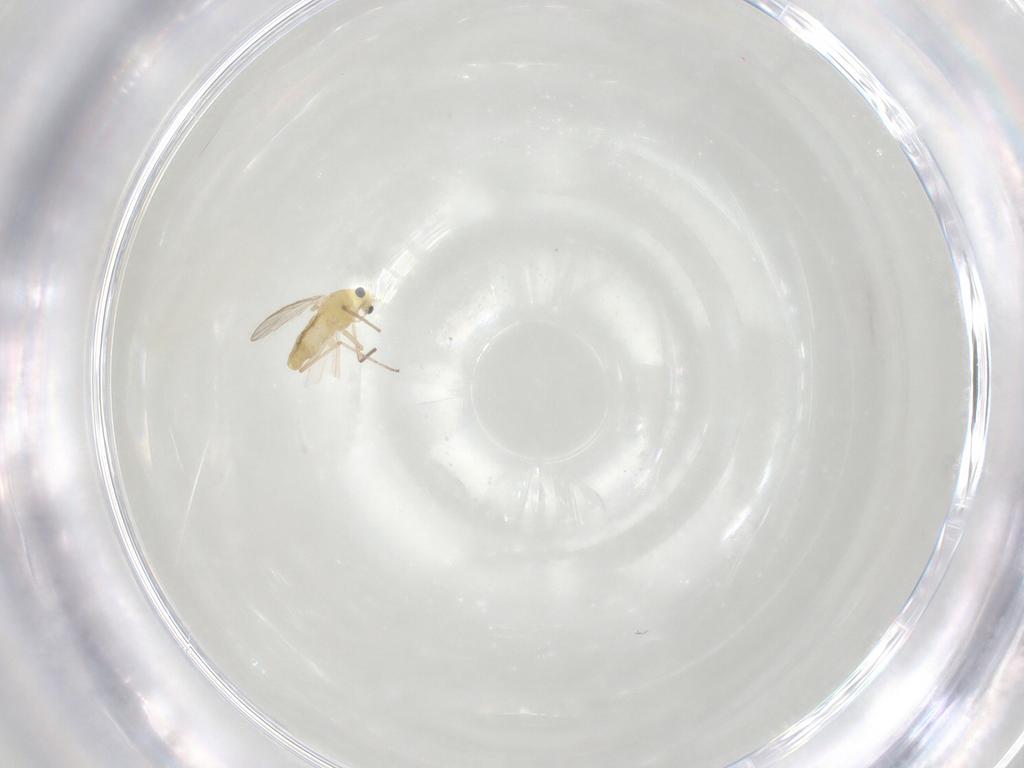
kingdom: Animalia
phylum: Arthropoda
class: Insecta
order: Diptera
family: Chironomidae
